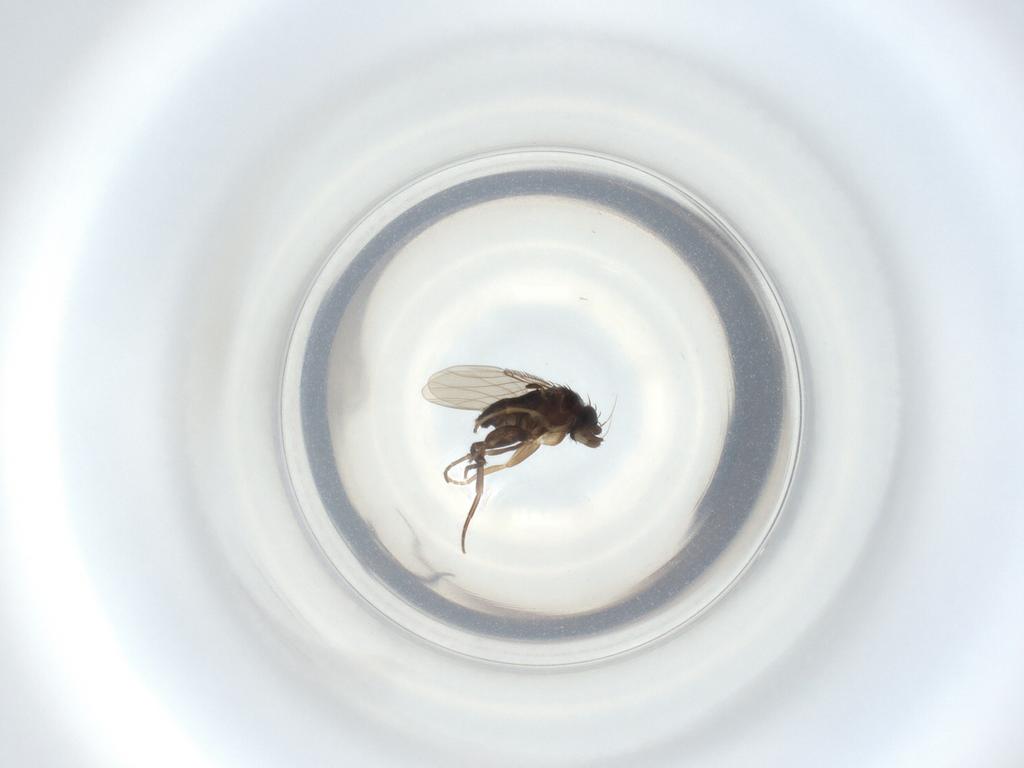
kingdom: Animalia
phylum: Arthropoda
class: Insecta
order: Diptera
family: Phoridae
